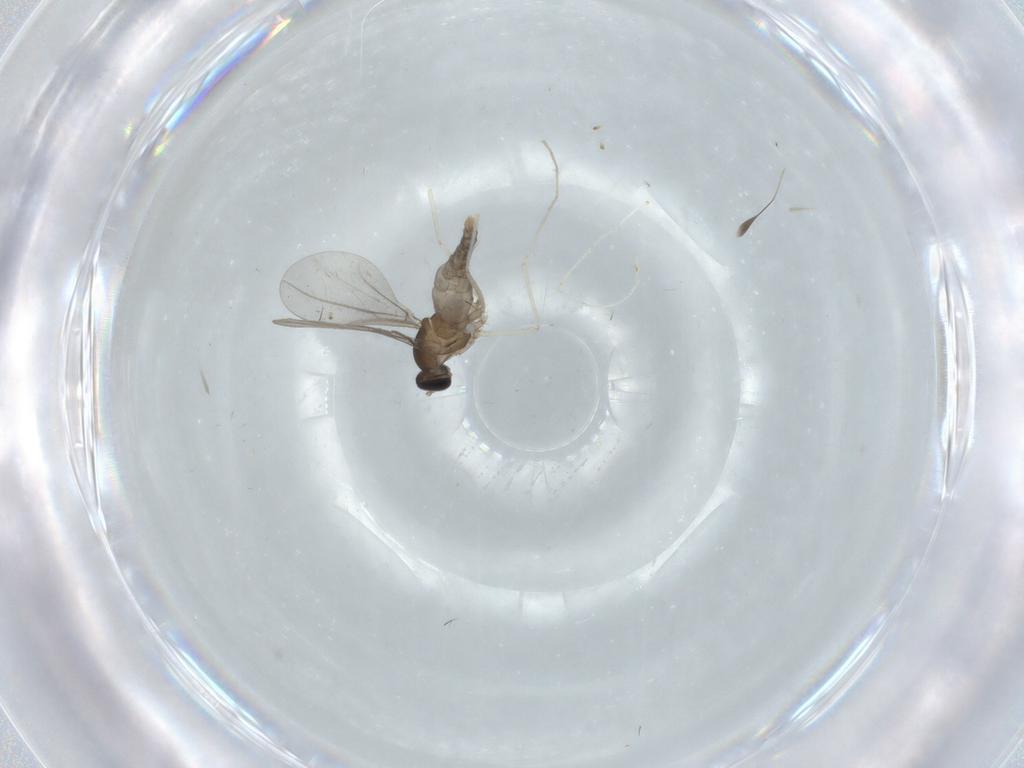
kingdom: Animalia
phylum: Arthropoda
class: Insecta
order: Diptera
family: Cecidomyiidae
